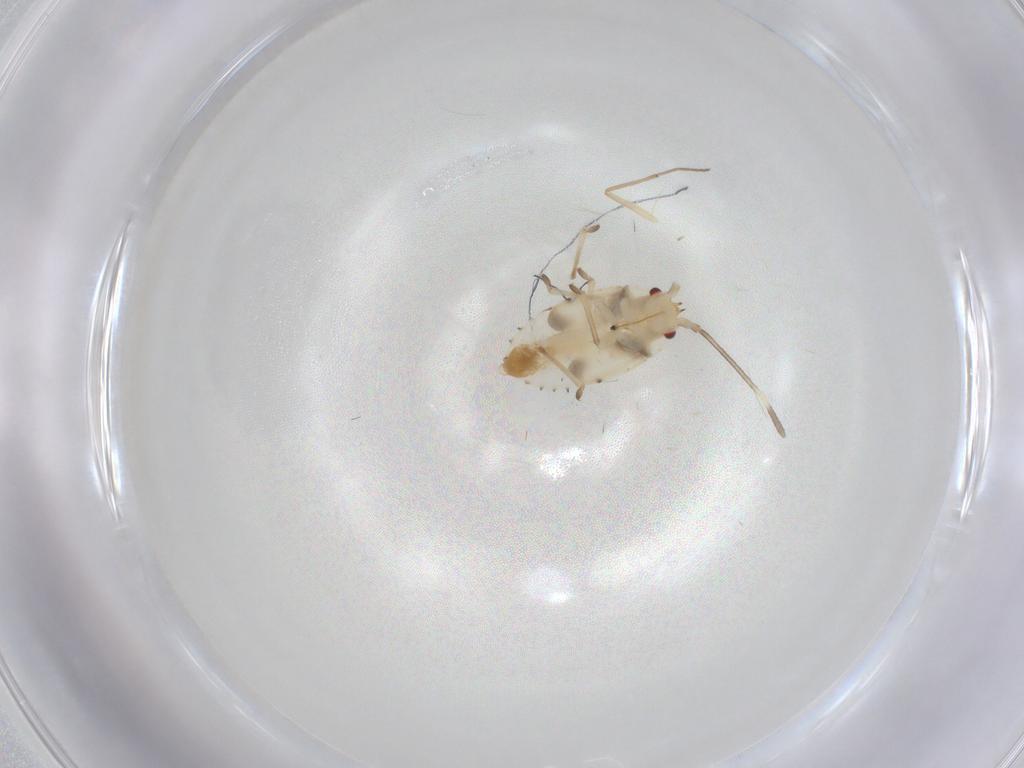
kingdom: Animalia
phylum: Arthropoda
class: Insecta
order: Hemiptera
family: Tingidae
